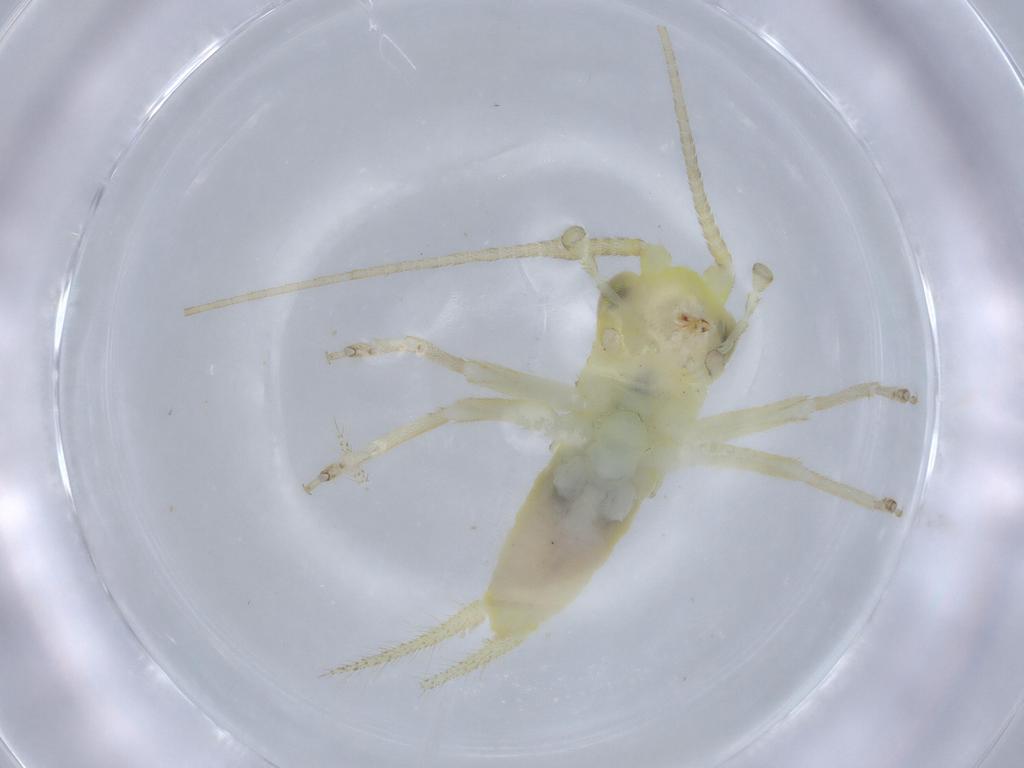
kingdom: Animalia
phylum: Arthropoda
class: Insecta
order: Orthoptera
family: Trigonidiidae
